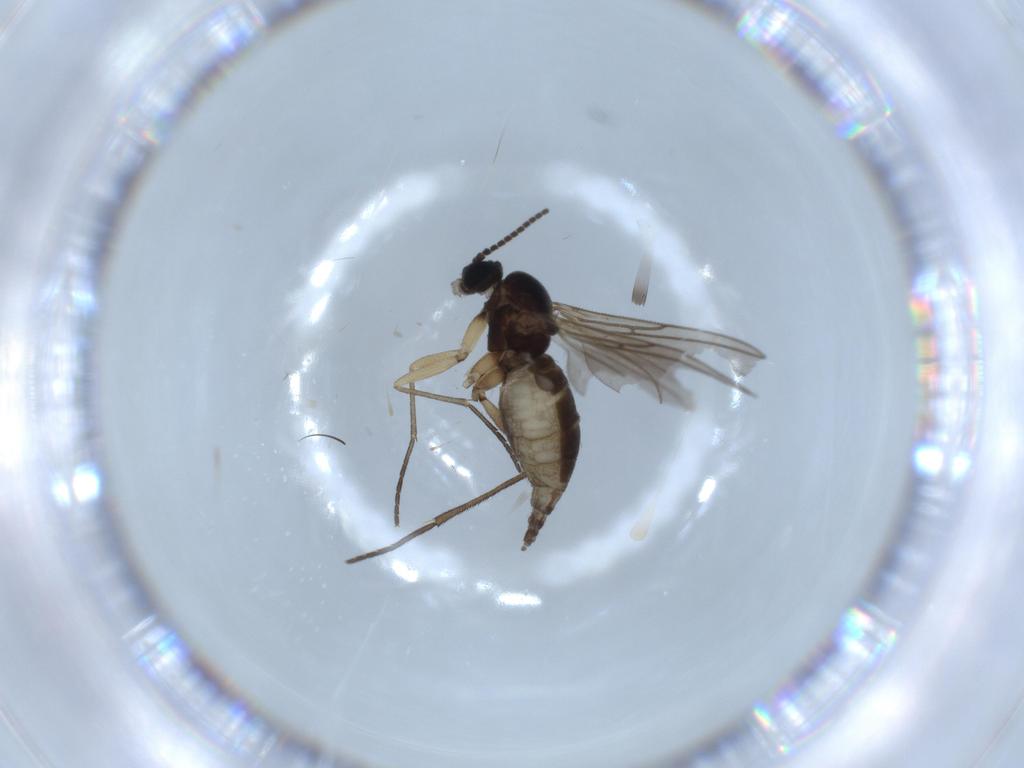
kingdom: Animalia
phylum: Arthropoda
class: Insecta
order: Diptera
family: Sciaridae
